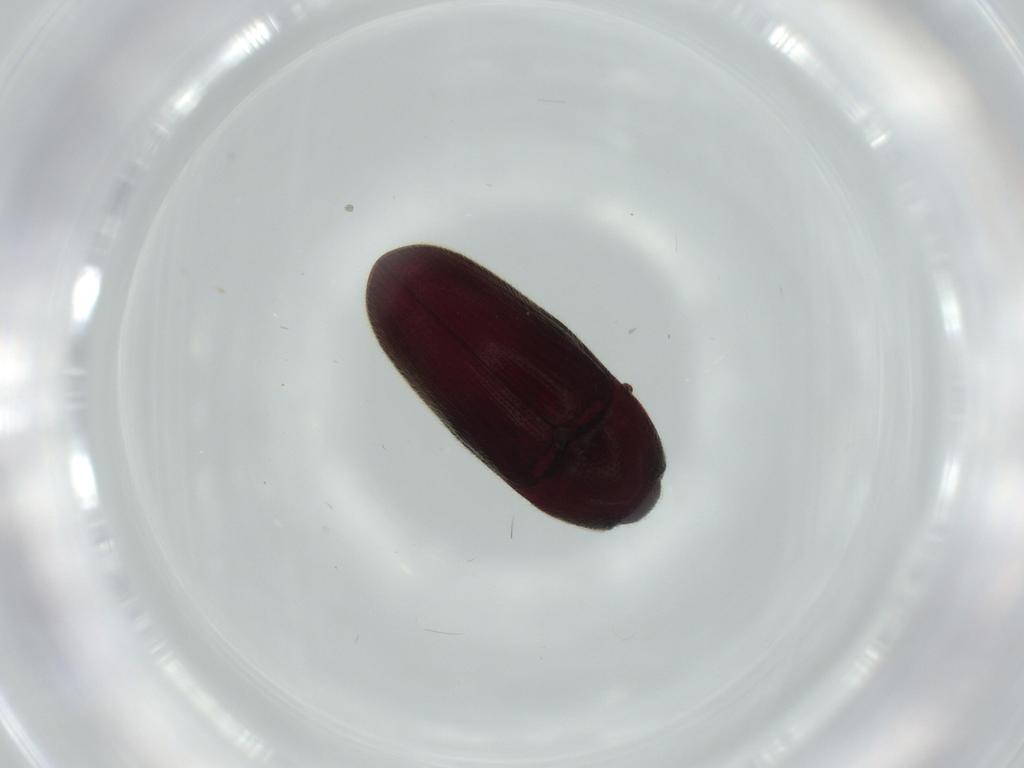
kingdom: Animalia
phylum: Arthropoda
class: Insecta
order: Coleoptera
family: Throscidae
